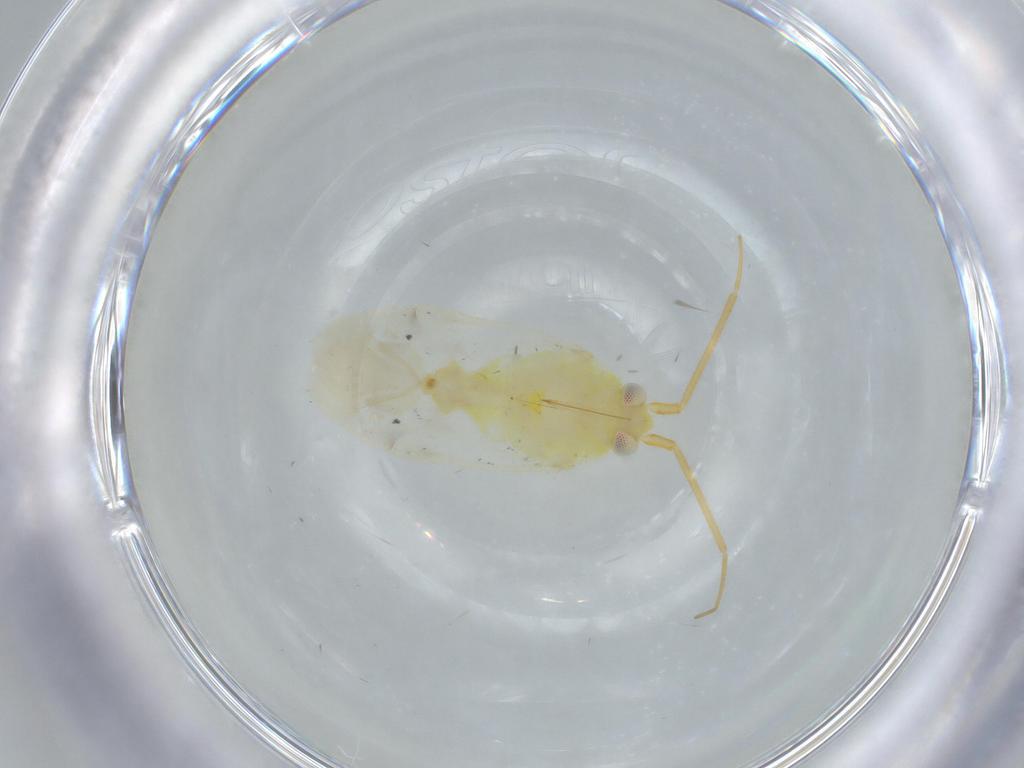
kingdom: Animalia
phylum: Arthropoda
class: Insecta
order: Hemiptera
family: Miridae
